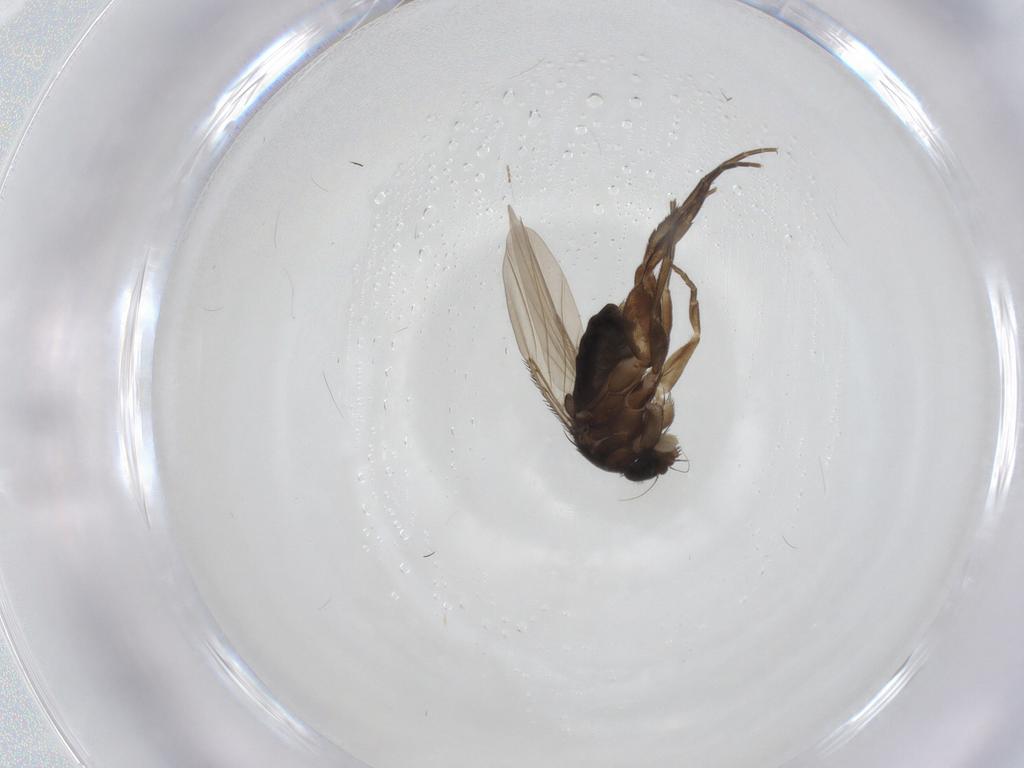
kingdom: Animalia
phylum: Arthropoda
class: Insecta
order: Diptera
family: Phoridae
